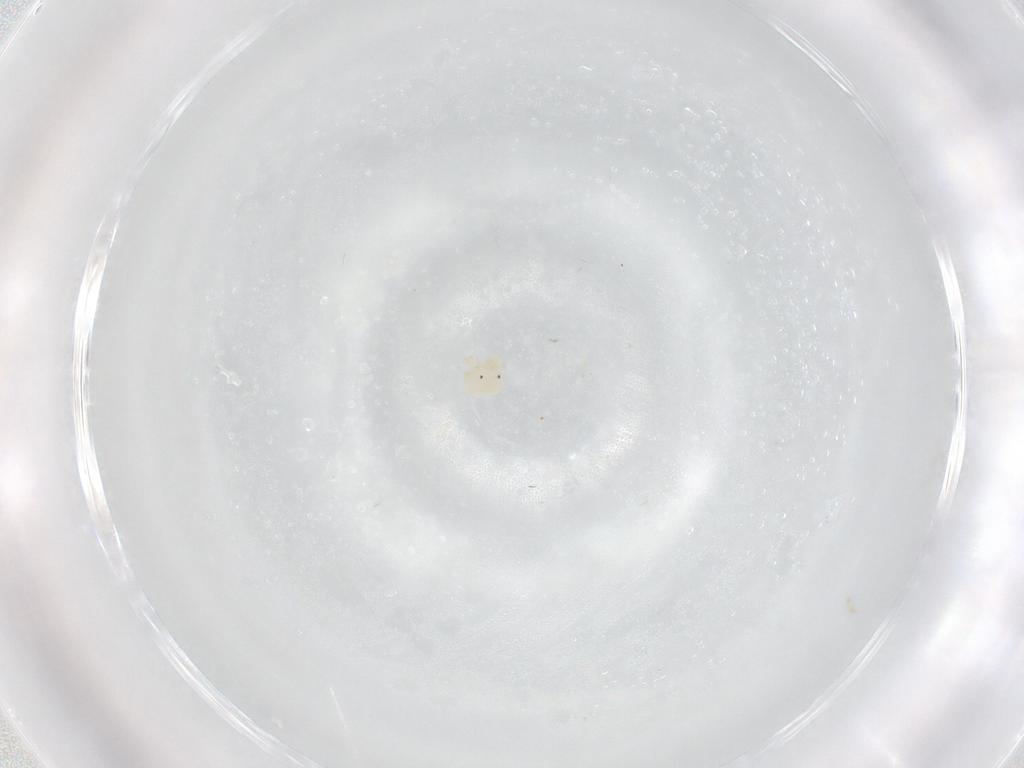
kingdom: Animalia
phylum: Arthropoda
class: Arachnida
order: Trombidiformes
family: Sperchontidae
